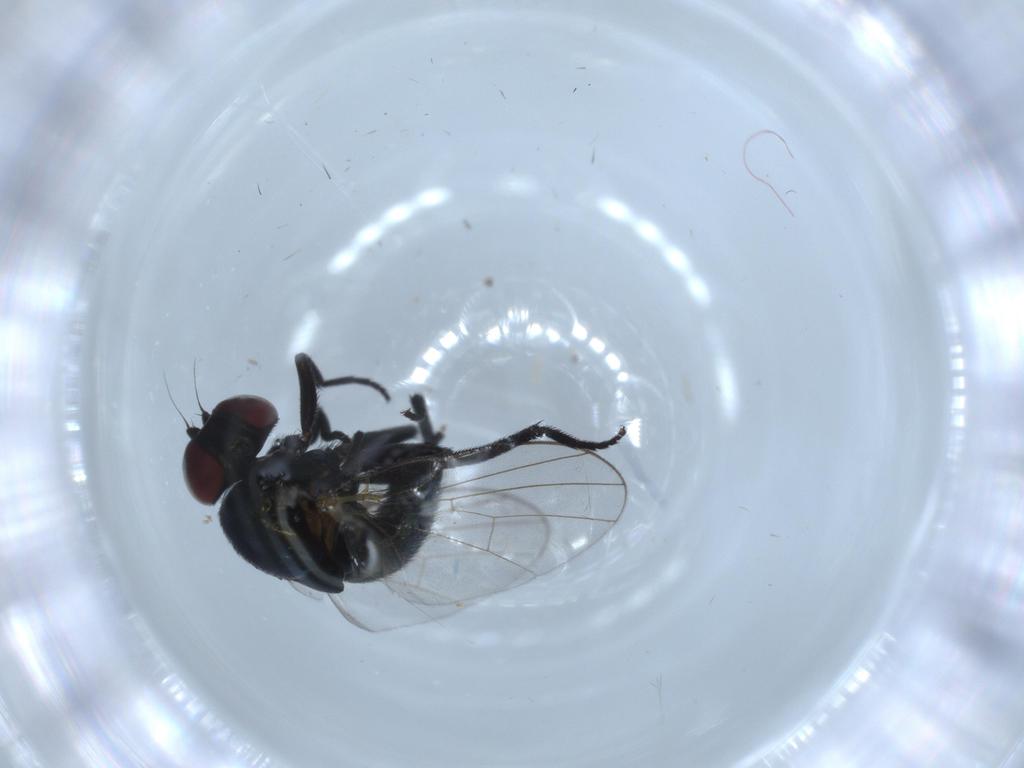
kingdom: Animalia
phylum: Arthropoda
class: Insecta
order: Diptera
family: Agromyzidae
